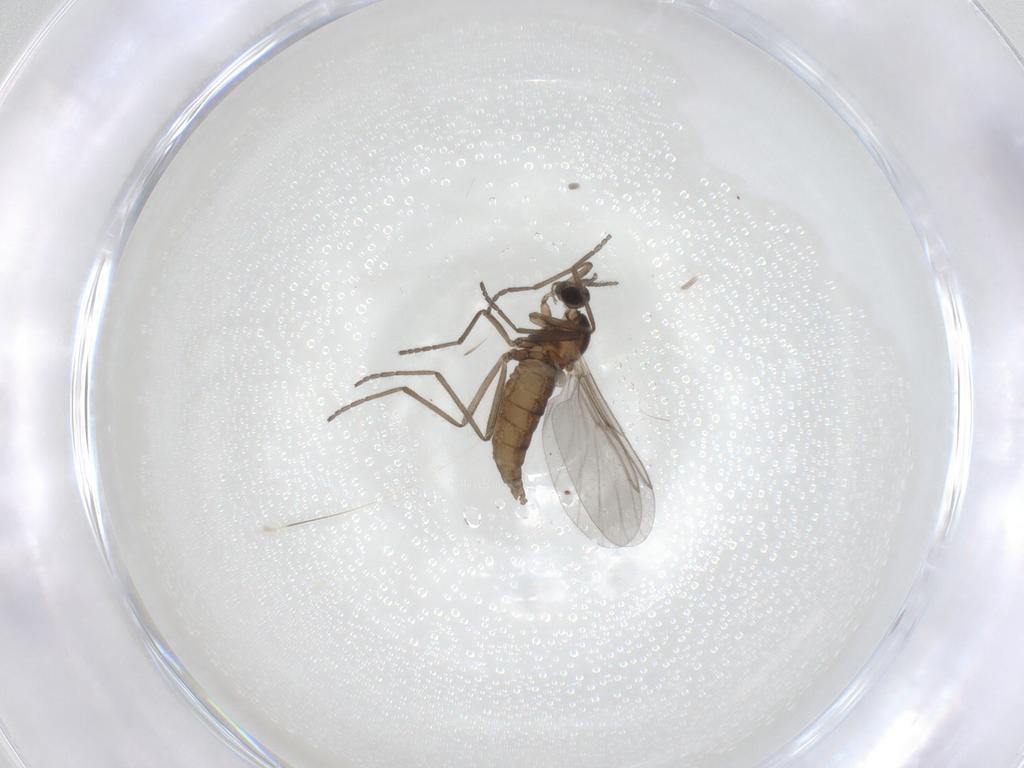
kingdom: Animalia
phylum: Arthropoda
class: Insecta
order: Diptera
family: Cecidomyiidae
